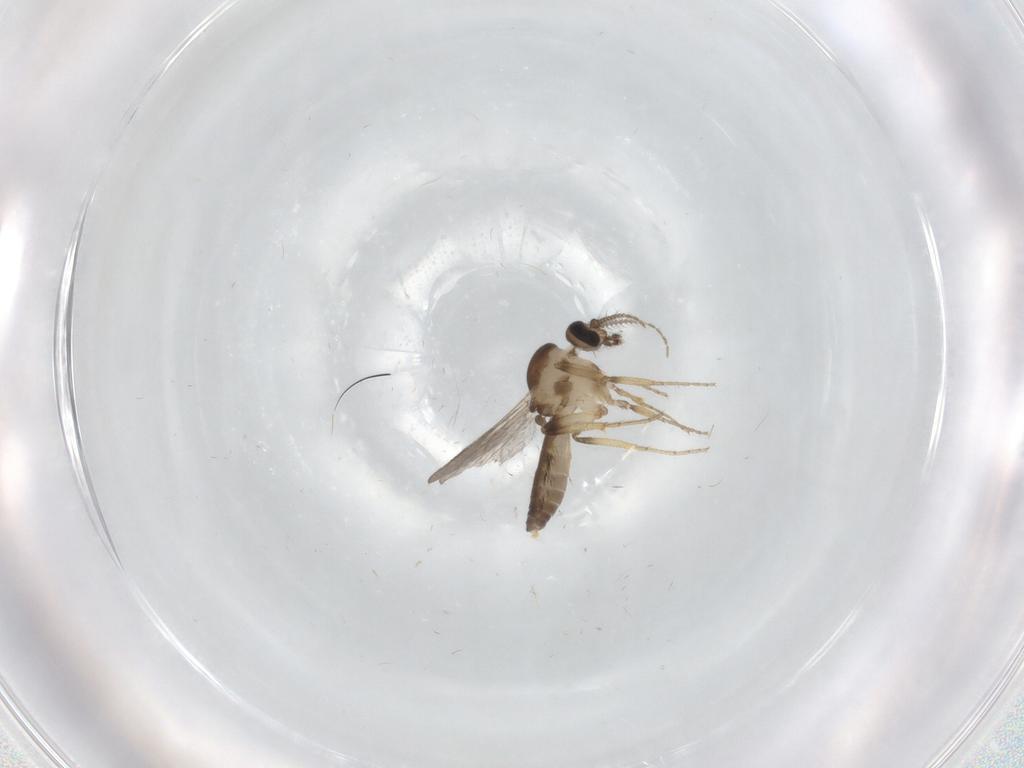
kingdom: Animalia
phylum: Arthropoda
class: Insecta
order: Diptera
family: Ceratopogonidae
